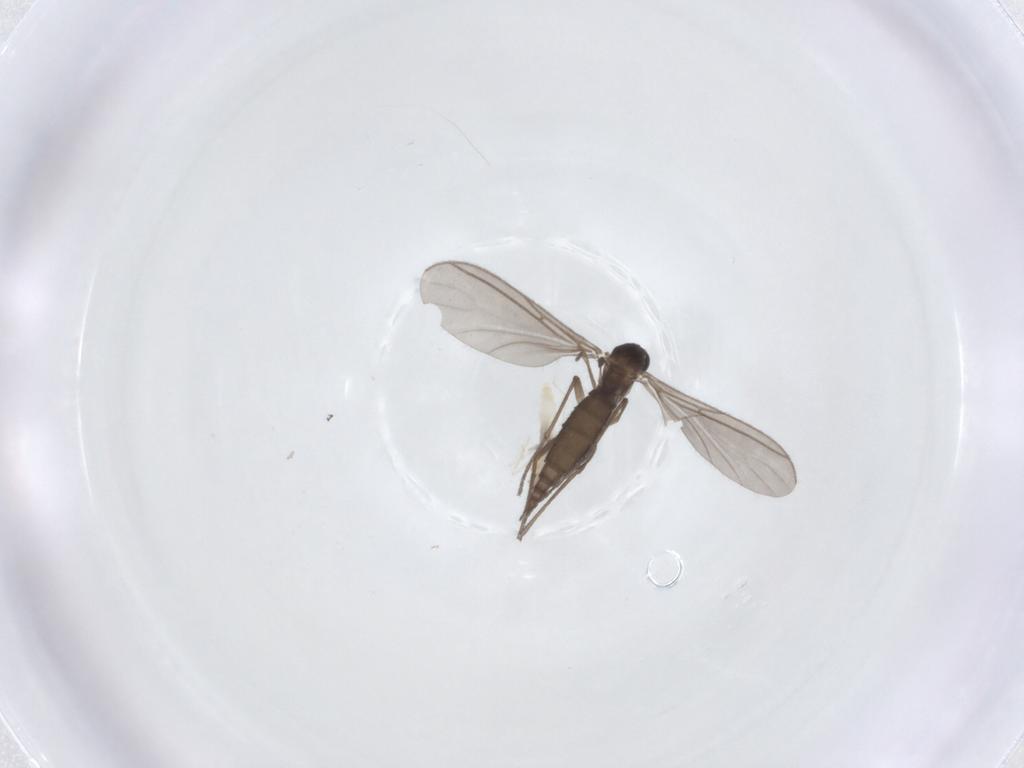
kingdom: Animalia
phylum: Arthropoda
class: Insecta
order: Diptera
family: Cecidomyiidae
